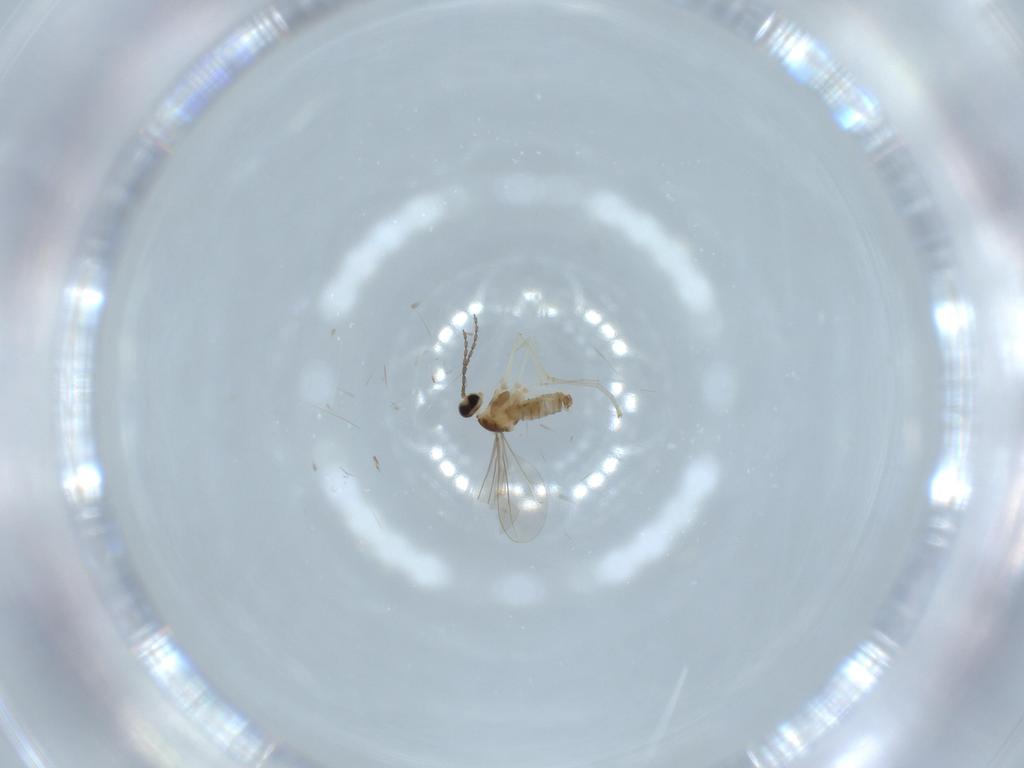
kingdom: Animalia
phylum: Arthropoda
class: Insecta
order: Diptera
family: Cecidomyiidae
